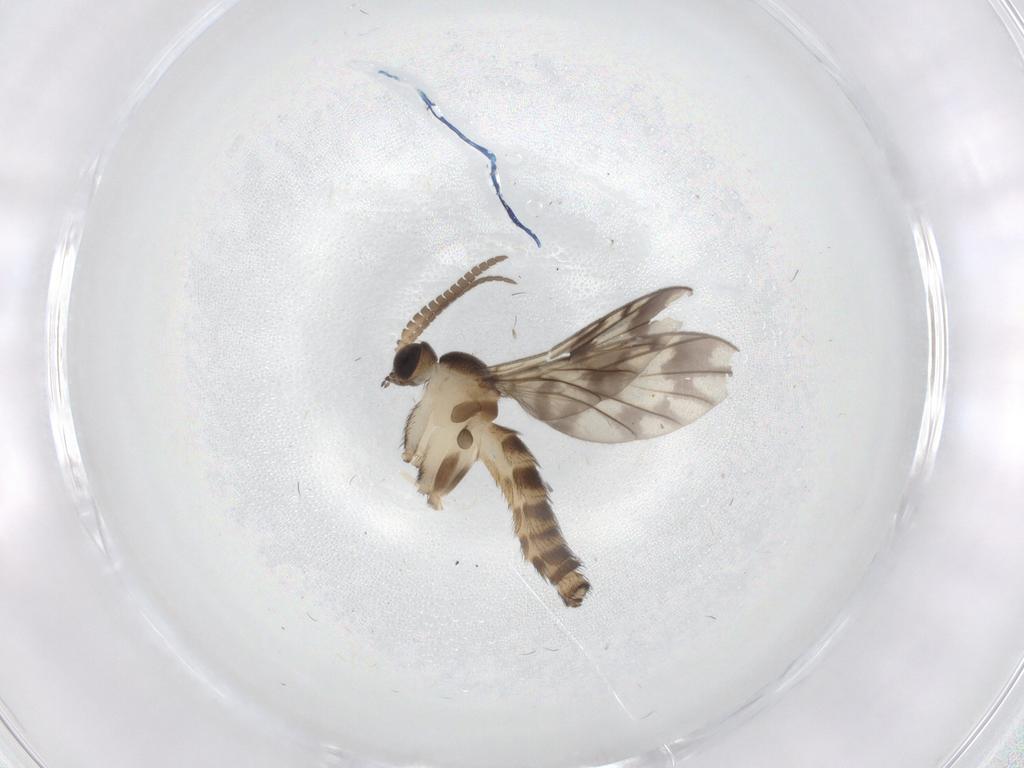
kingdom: Animalia
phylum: Arthropoda
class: Insecta
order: Diptera
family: Keroplatidae
